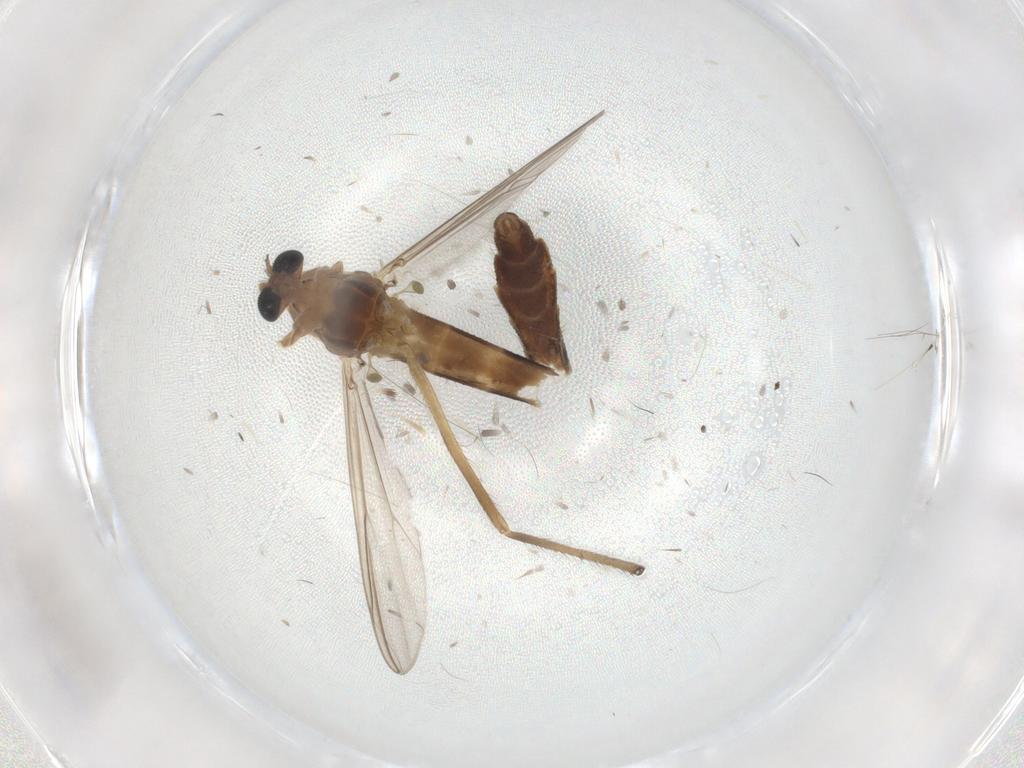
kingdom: Animalia
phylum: Arthropoda
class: Insecta
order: Diptera
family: Chironomidae
